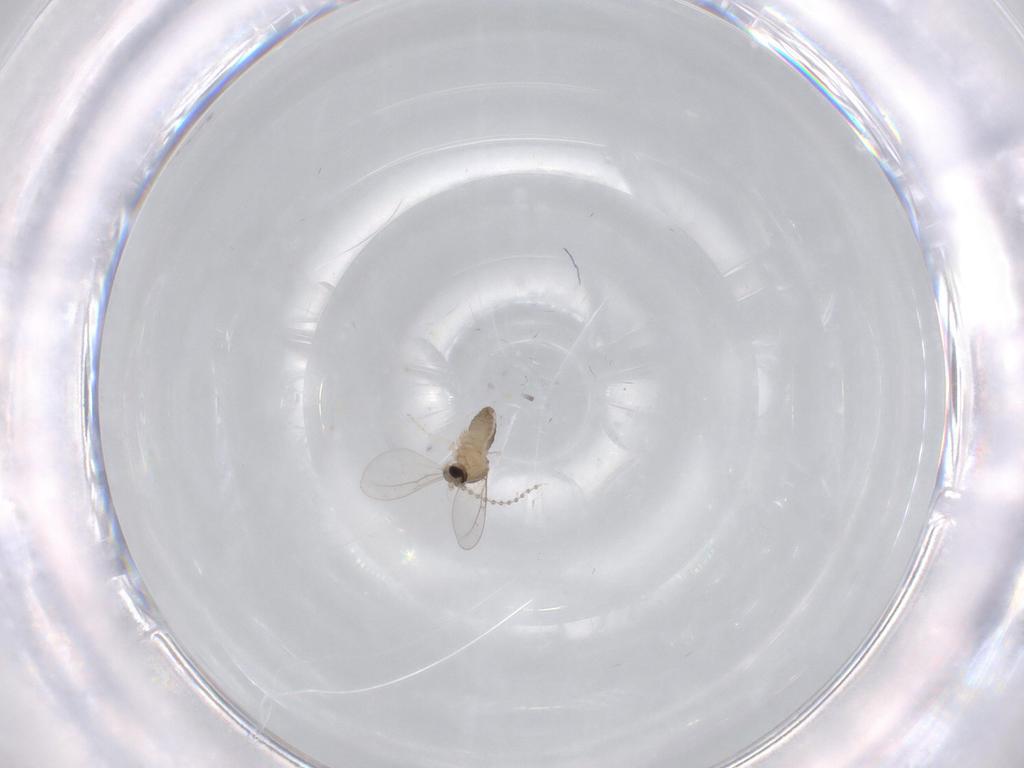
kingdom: Animalia
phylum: Arthropoda
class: Insecta
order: Diptera
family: Cecidomyiidae
